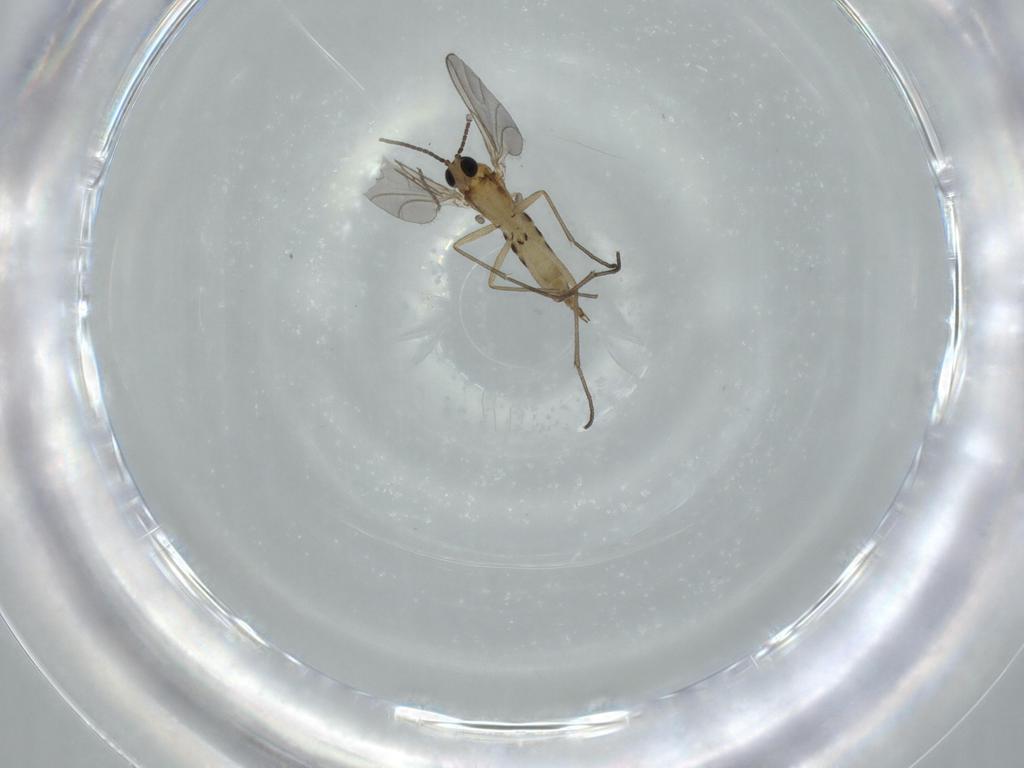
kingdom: Animalia
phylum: Arthropoda
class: Insecta
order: Diptera
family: Cecidomyiidae
